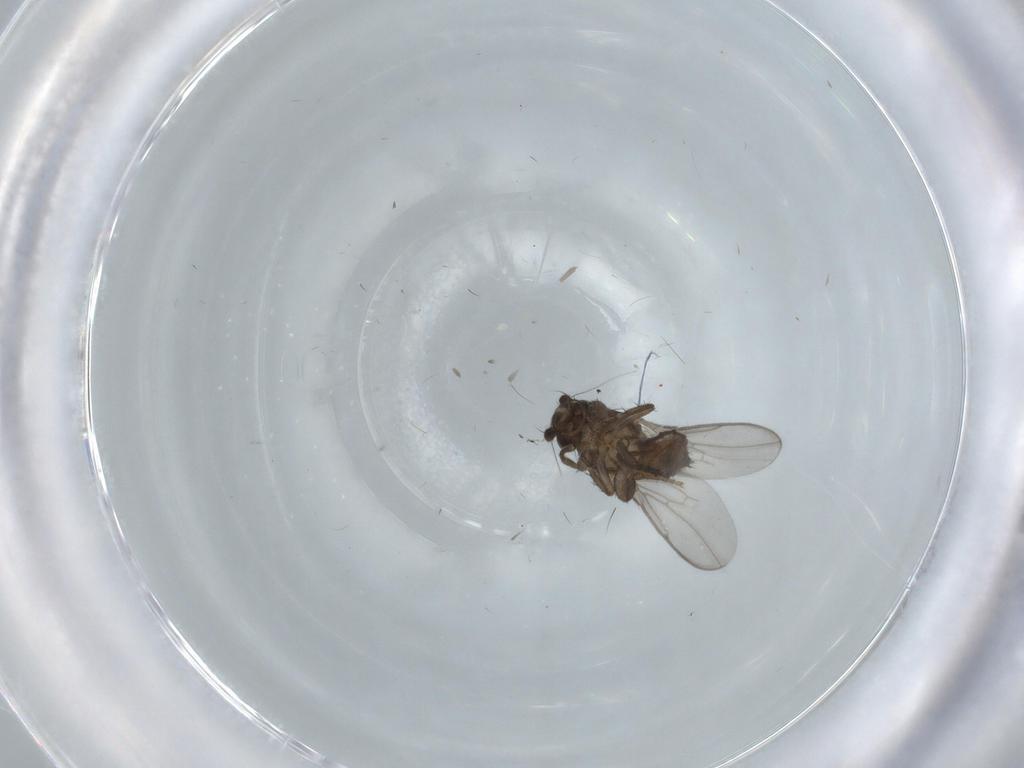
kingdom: Animalia
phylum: Arthropoda
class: Insecta
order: Diptera
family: Sphaeroceridae
